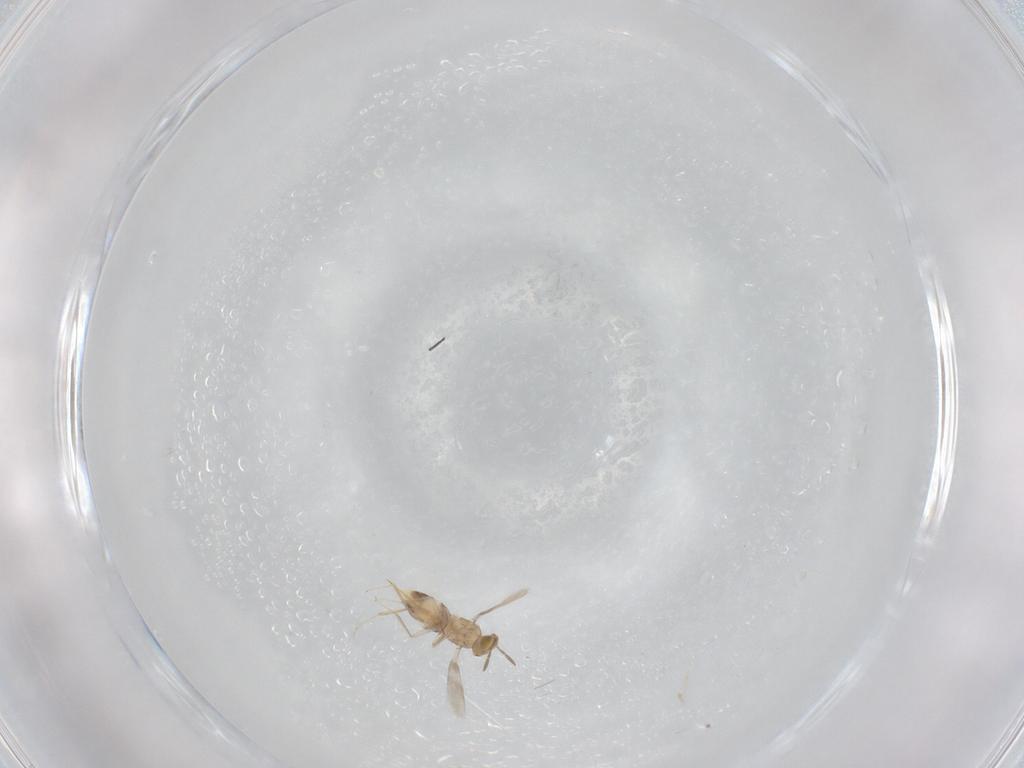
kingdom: Animalia
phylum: Arthropoda
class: Insecta
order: Hymenoptera
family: Aphelinidae
